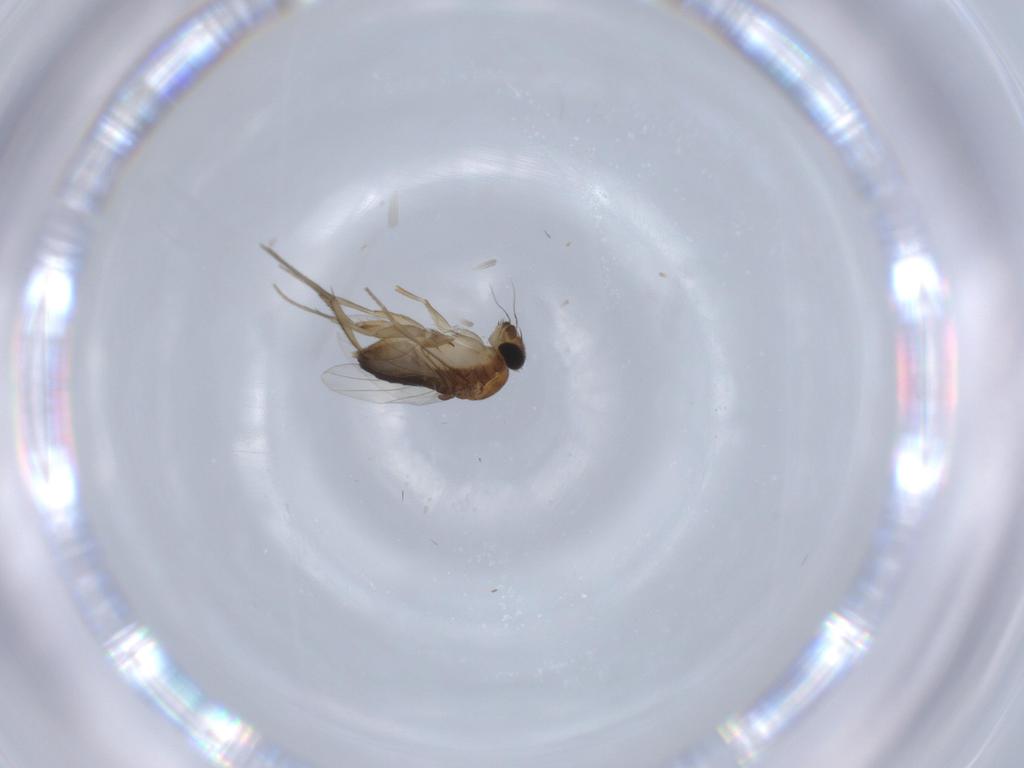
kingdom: Animalia
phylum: Arthropoda
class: Insecta
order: Diptera
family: Phoridae
